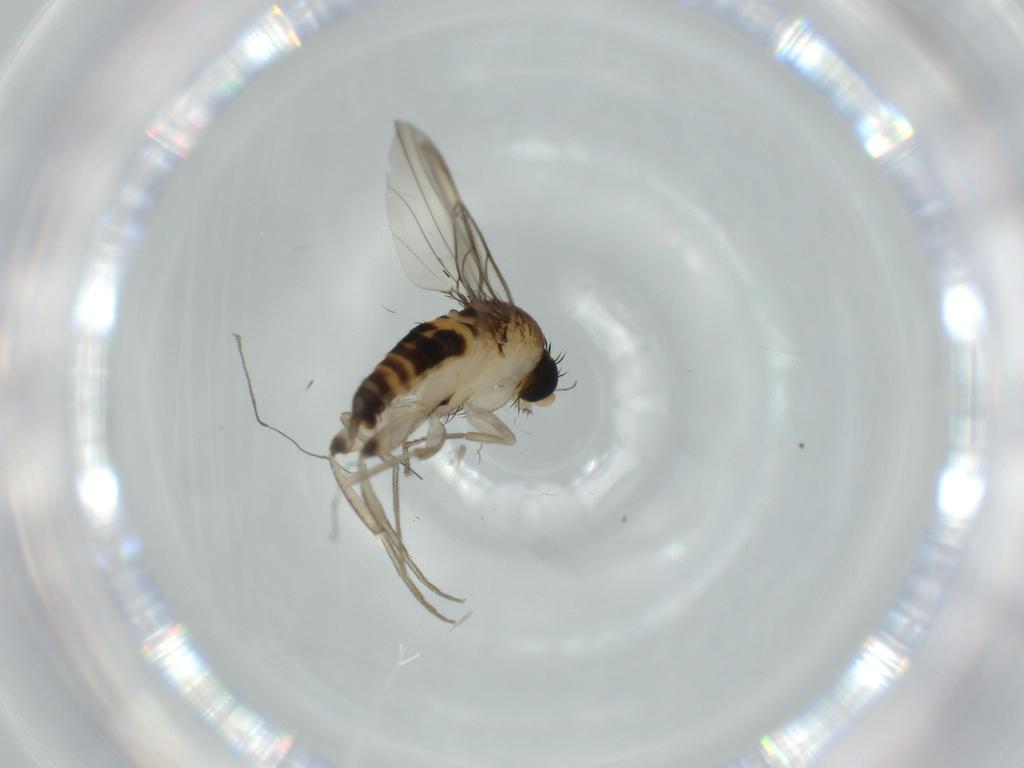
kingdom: Animalia
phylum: Arthropoda
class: Insecta
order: Diptera
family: Phoridae
